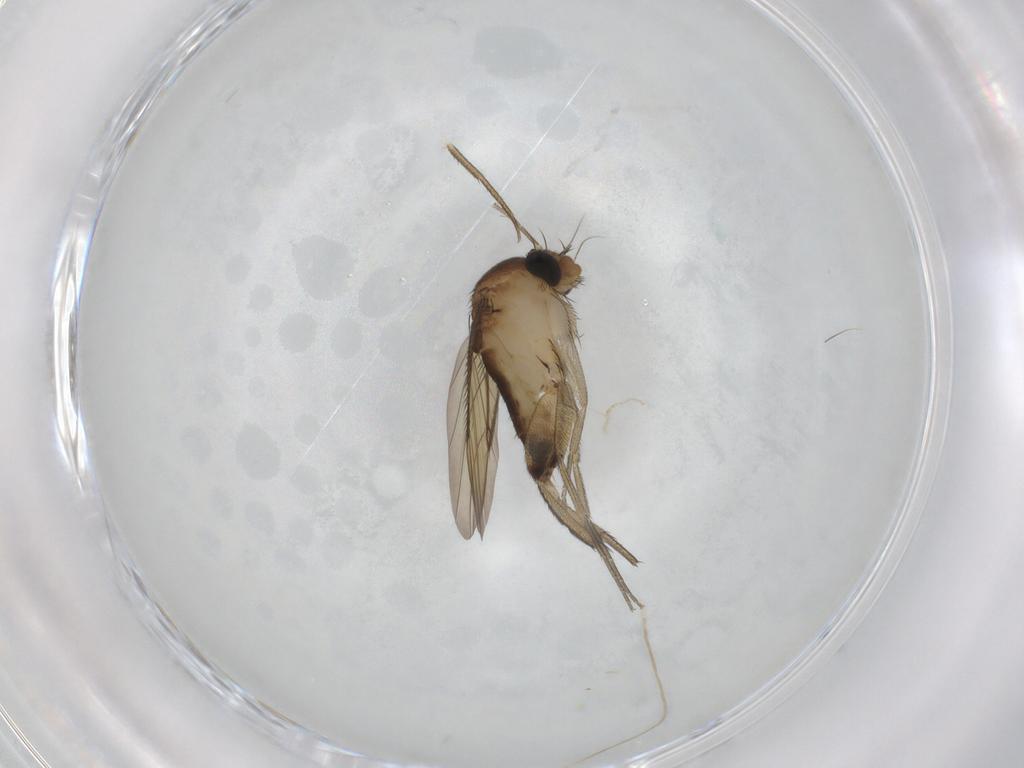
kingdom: Animalia
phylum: Arthropoda
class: Insecta
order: Diptera
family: Phoridae
